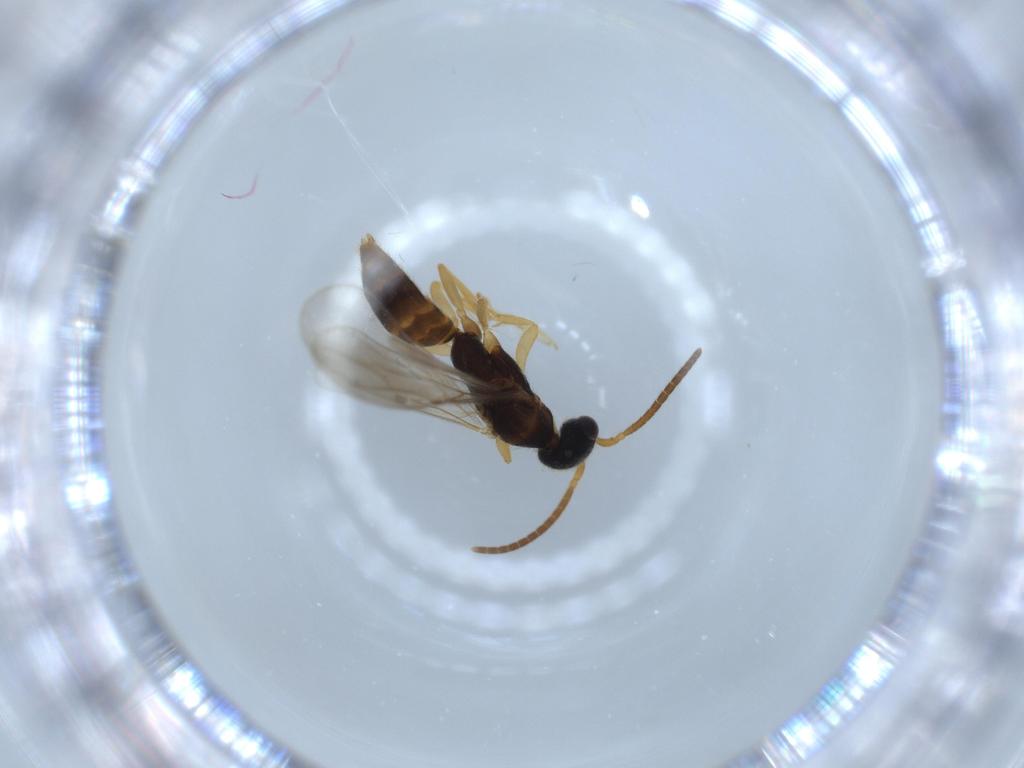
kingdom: Animalia
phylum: Arthropoda
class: Insecta
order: Hymenoptera
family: Bethylidae
